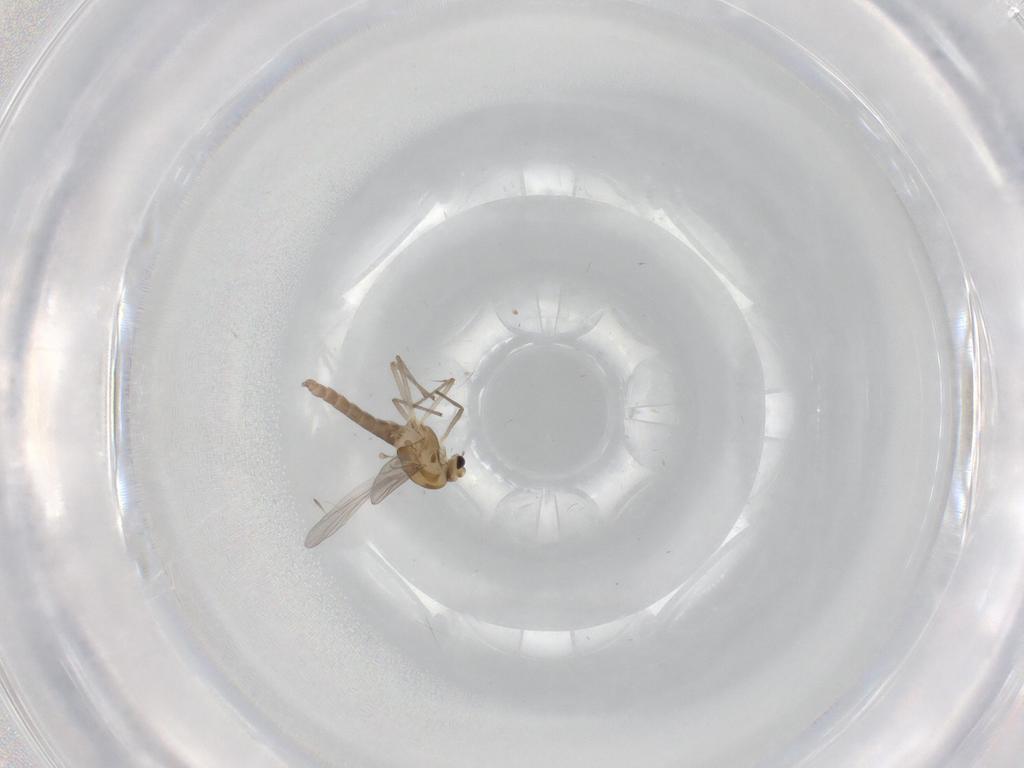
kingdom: Animalia
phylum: Arthropoda
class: Insecta
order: Diptera
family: Chironomidae
